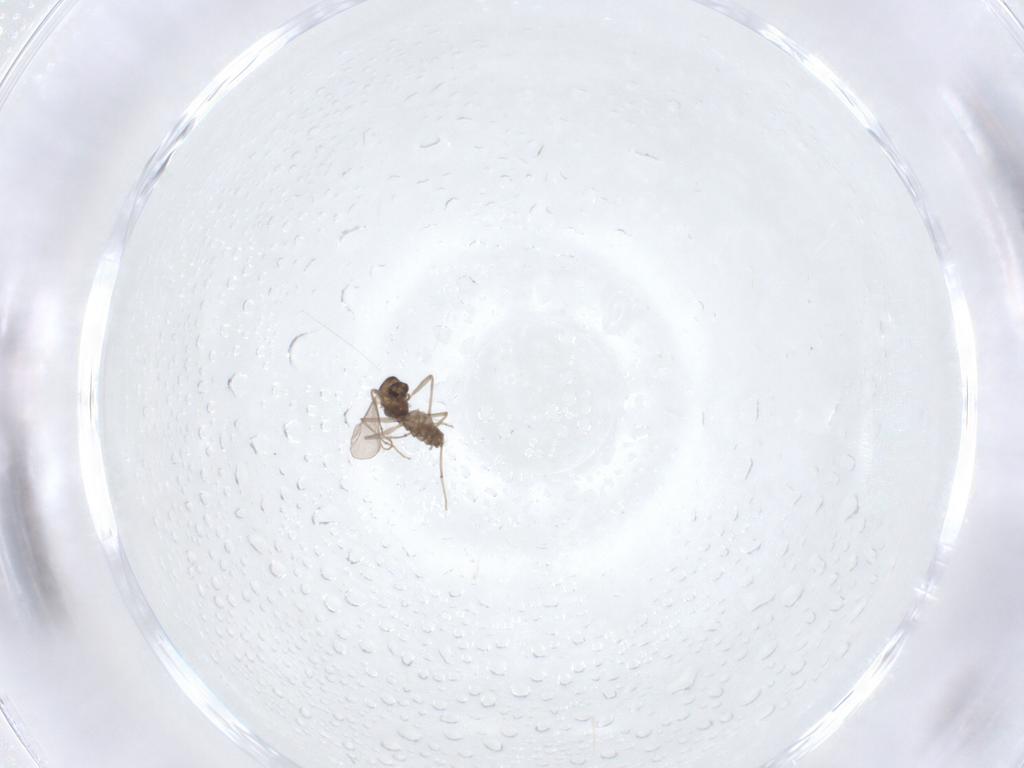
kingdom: Animalia
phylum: Arthropoda
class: Insecta
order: Diptera
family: Chironomidae
